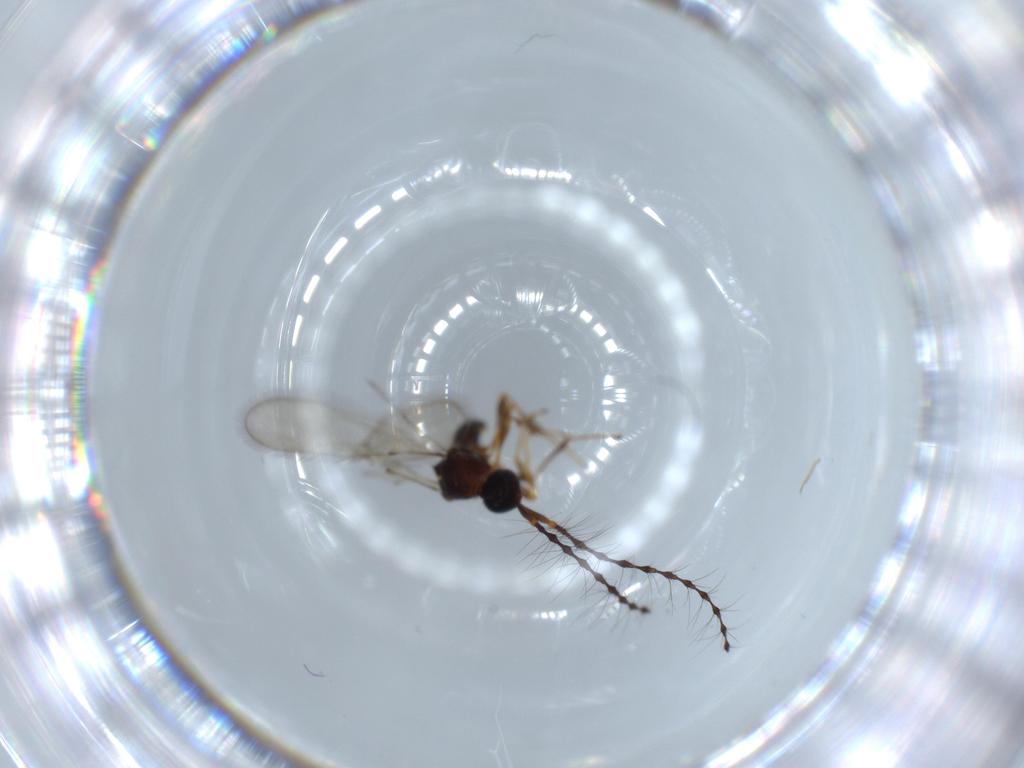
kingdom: Animalia
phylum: Arthropoda
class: Insecta
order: Hymenoptera
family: Diapriidae
